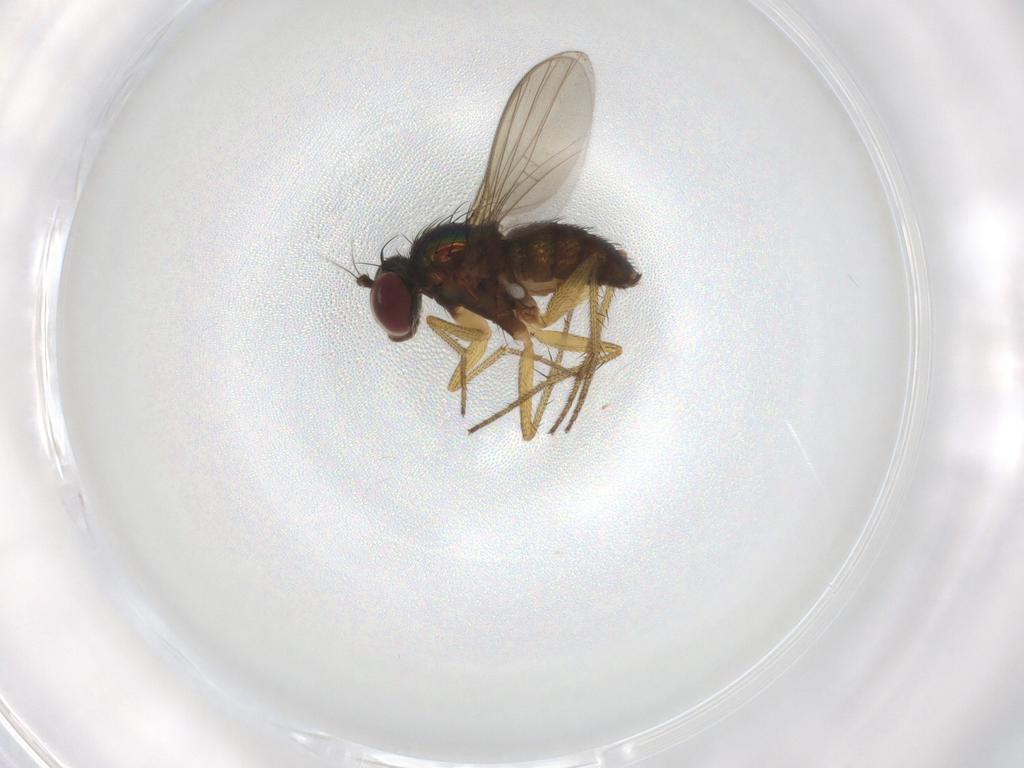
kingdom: Animalia
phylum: Arthropoda
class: Insecta
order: Diptera
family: Dolichopodidae
